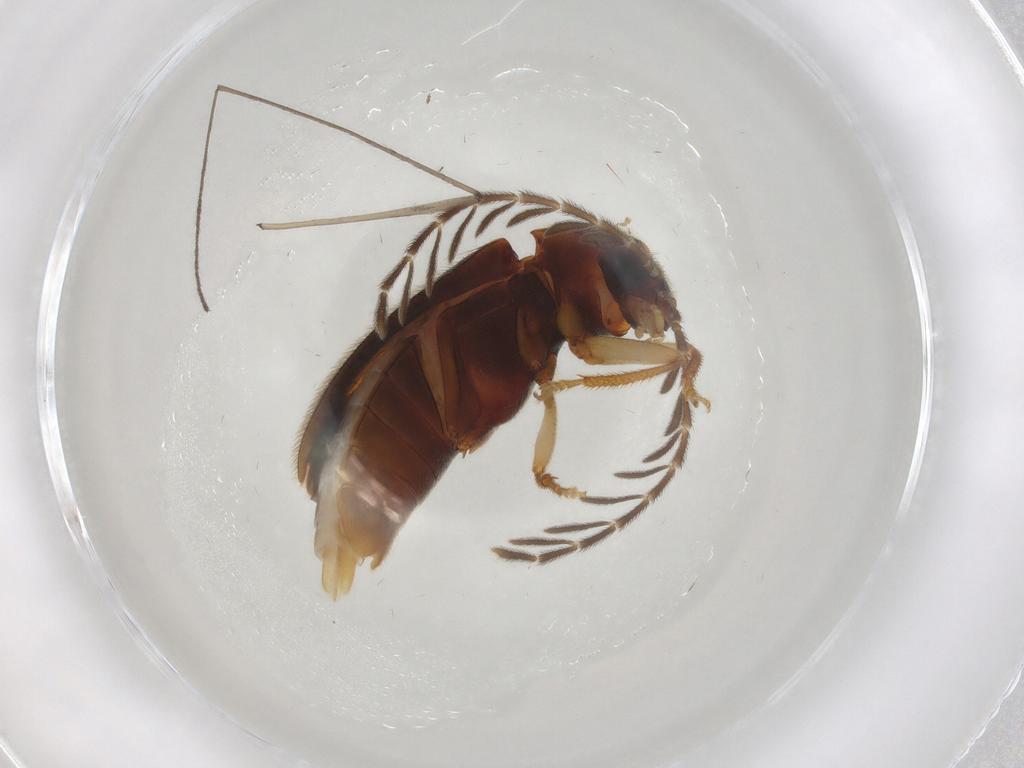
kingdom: Animalia
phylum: Arthropoda
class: Insecta
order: Coleoptera
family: Ptilodactylidae
